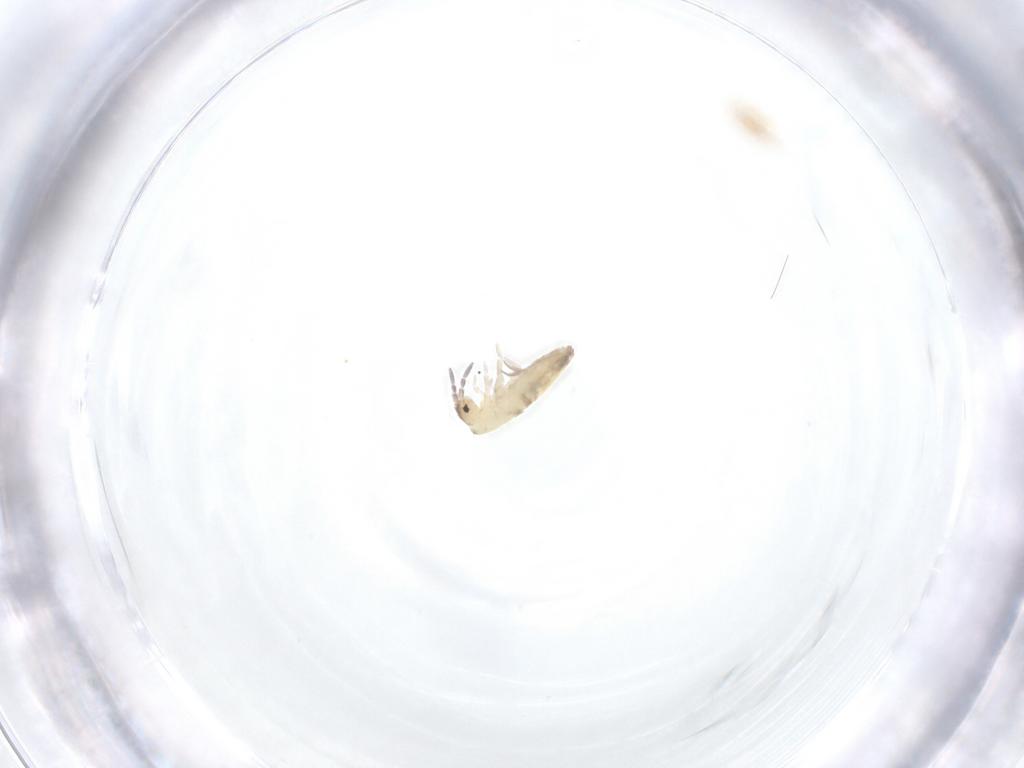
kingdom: Animalia
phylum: Arthropoda
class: Collembola
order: Entomobryomorpha
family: Entomobryidae
